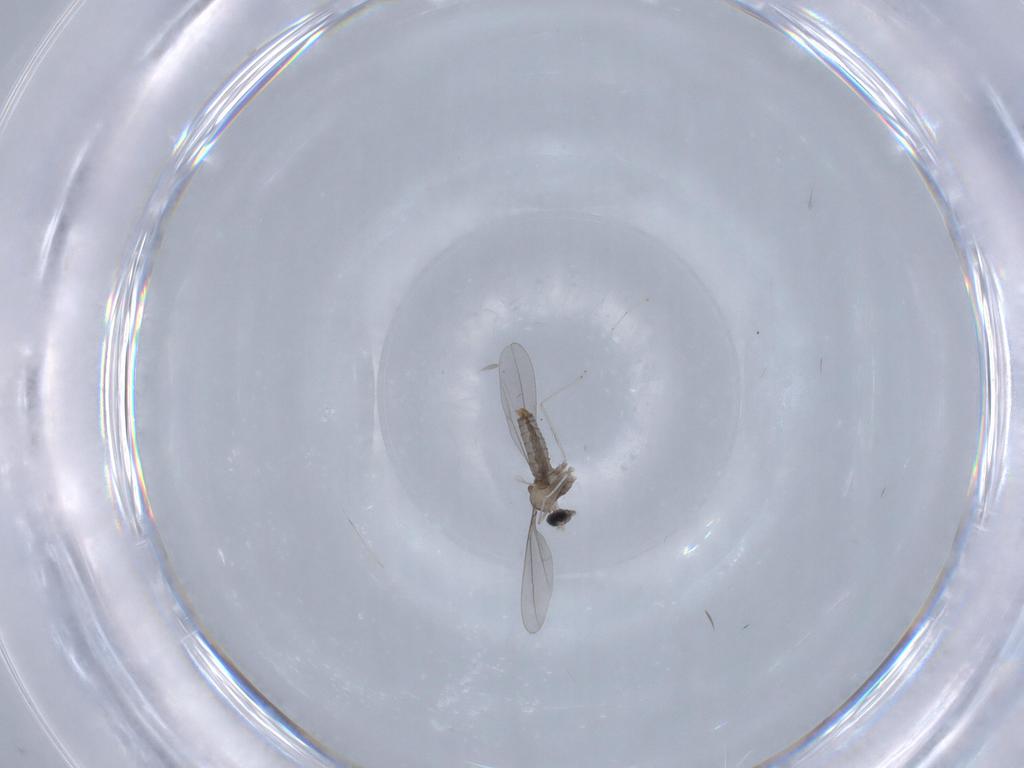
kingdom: Animalia
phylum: Arthropoda
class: Insecta
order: Diptera
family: Cecidomyiidae
